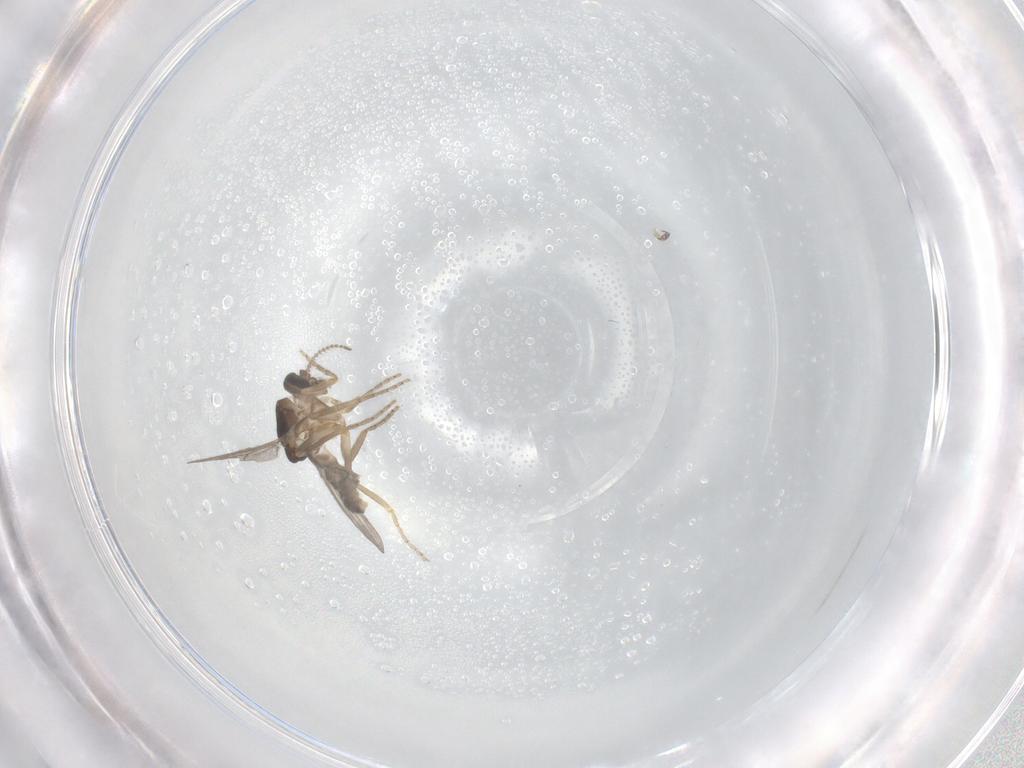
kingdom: Animalia
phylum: Arthropoda
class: Insecta
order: Diptera
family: Ceratopogonidae
